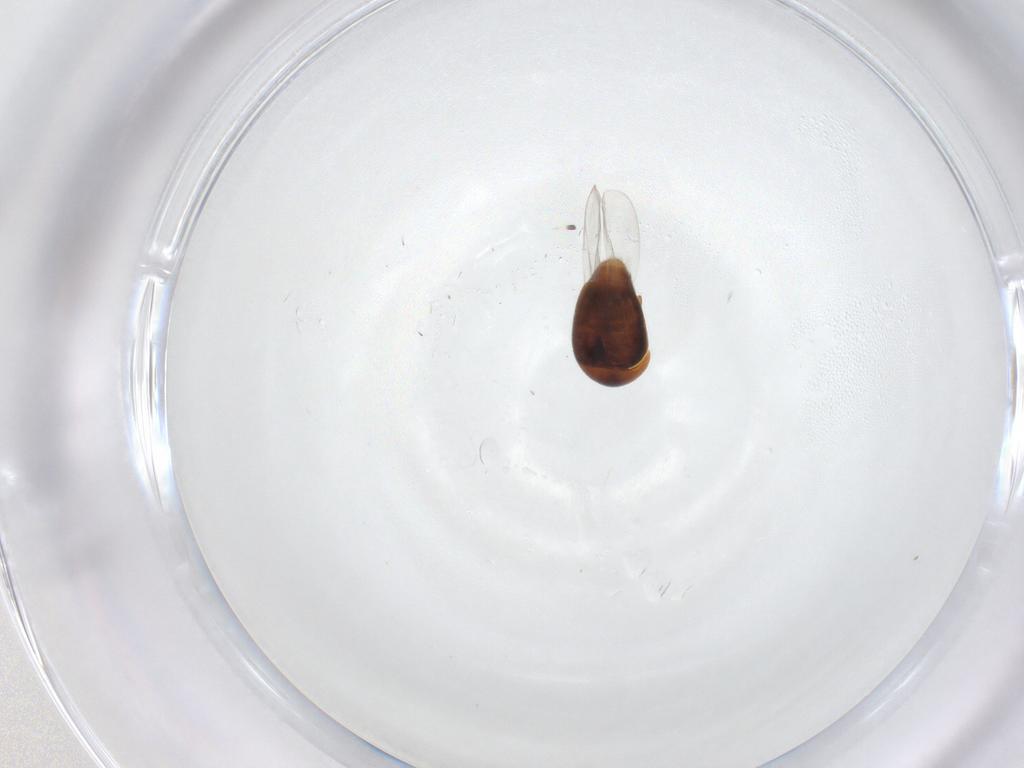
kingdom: Animalia
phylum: Arthropoda
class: Insecta
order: Coleoptera
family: Corylophidae
